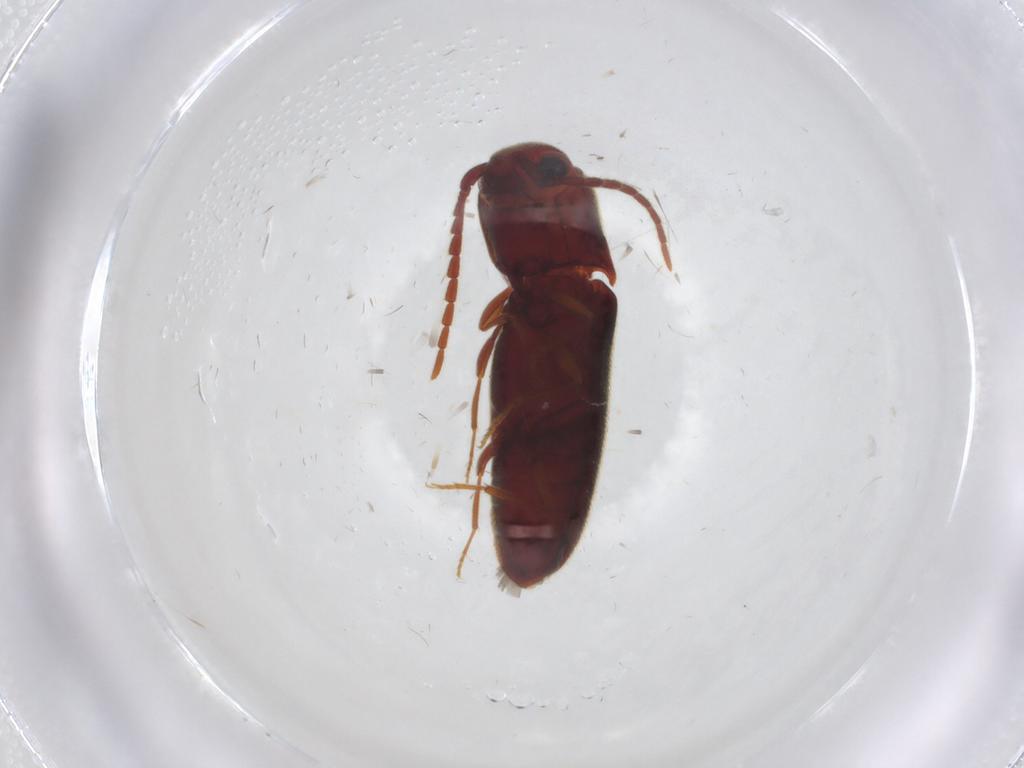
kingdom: Animalia
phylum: Arthropoda
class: Insecta
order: Coleoptera
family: Eucnemidae
